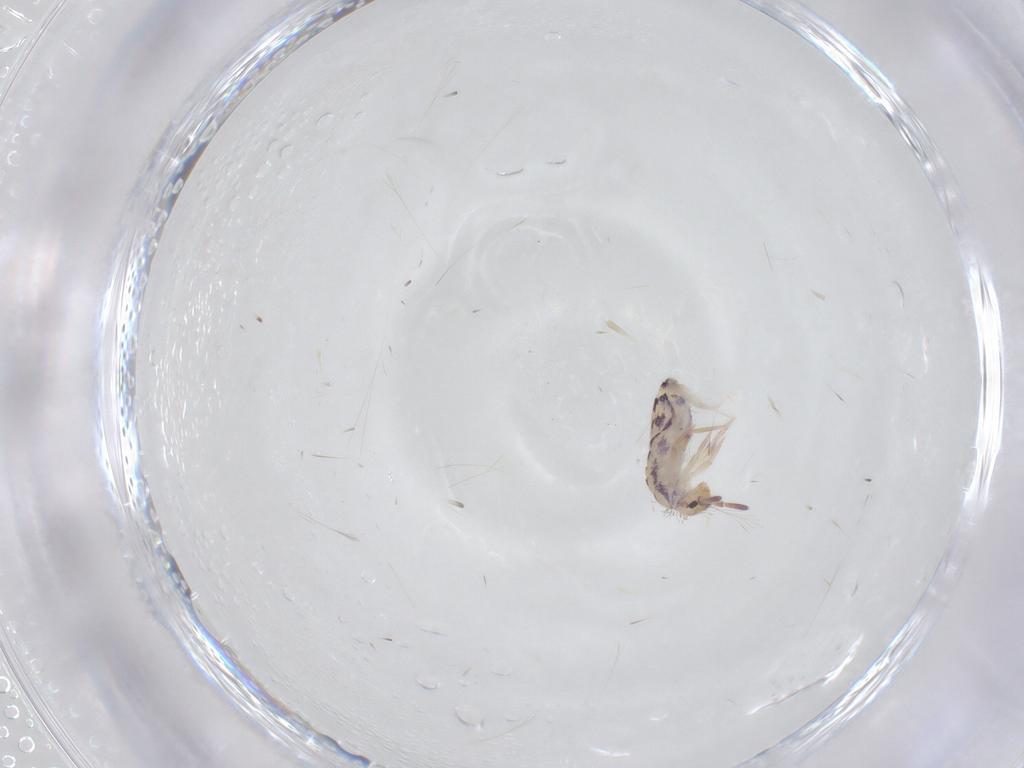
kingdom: Animalia
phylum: Arthropoda
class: Collembola
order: Entomobryomorpha
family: Entomobryidae
